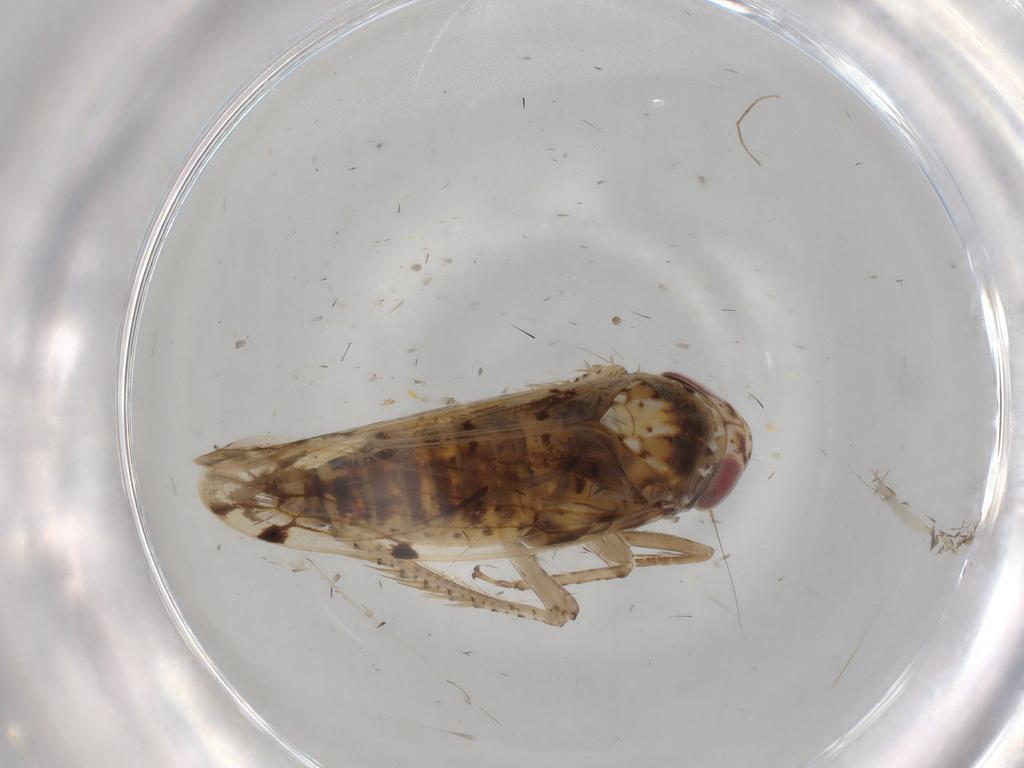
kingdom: Animalia
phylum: Arthropoda
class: Insecta
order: Hemiptera
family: Cicadellidae
